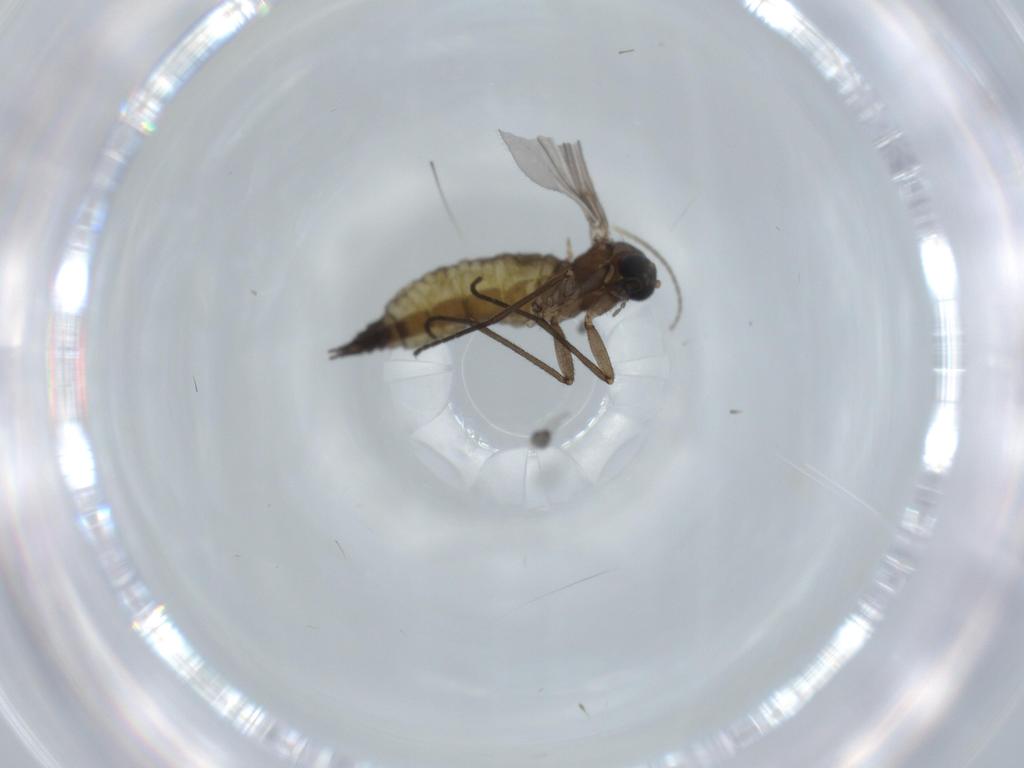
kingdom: Animalia
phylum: Arthropoda
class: Insecta
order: Diptera
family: Cecidomyiidae
